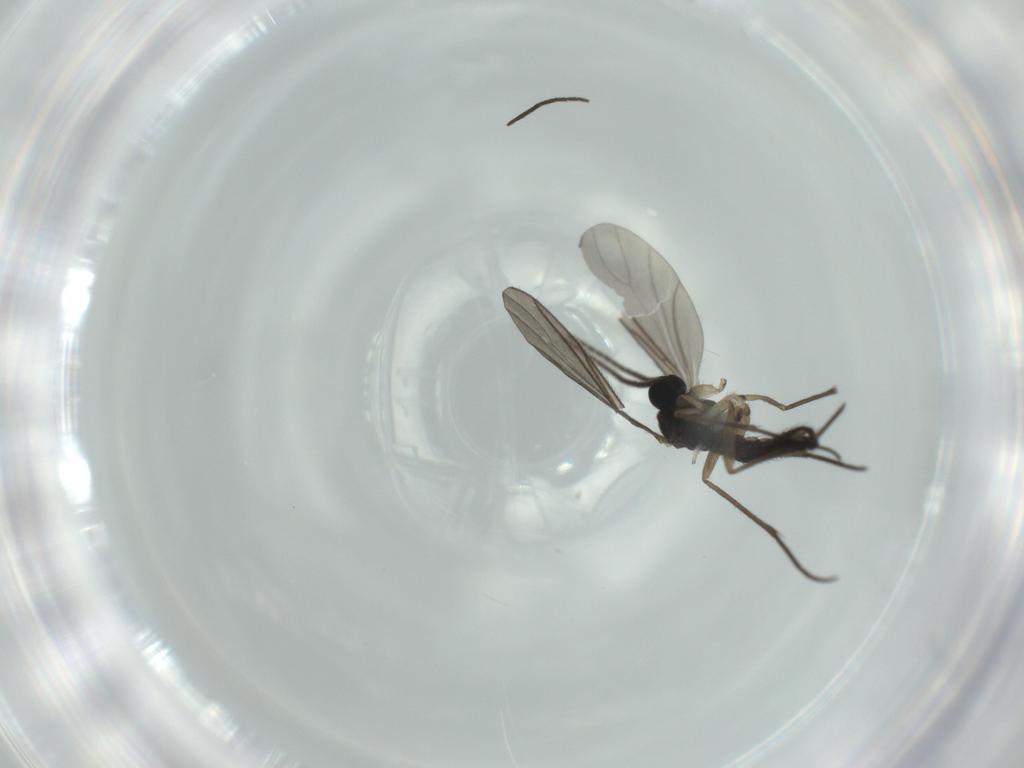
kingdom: Animalia
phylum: Arthropoda
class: Insecta
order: Diptera
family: Sciaridae
